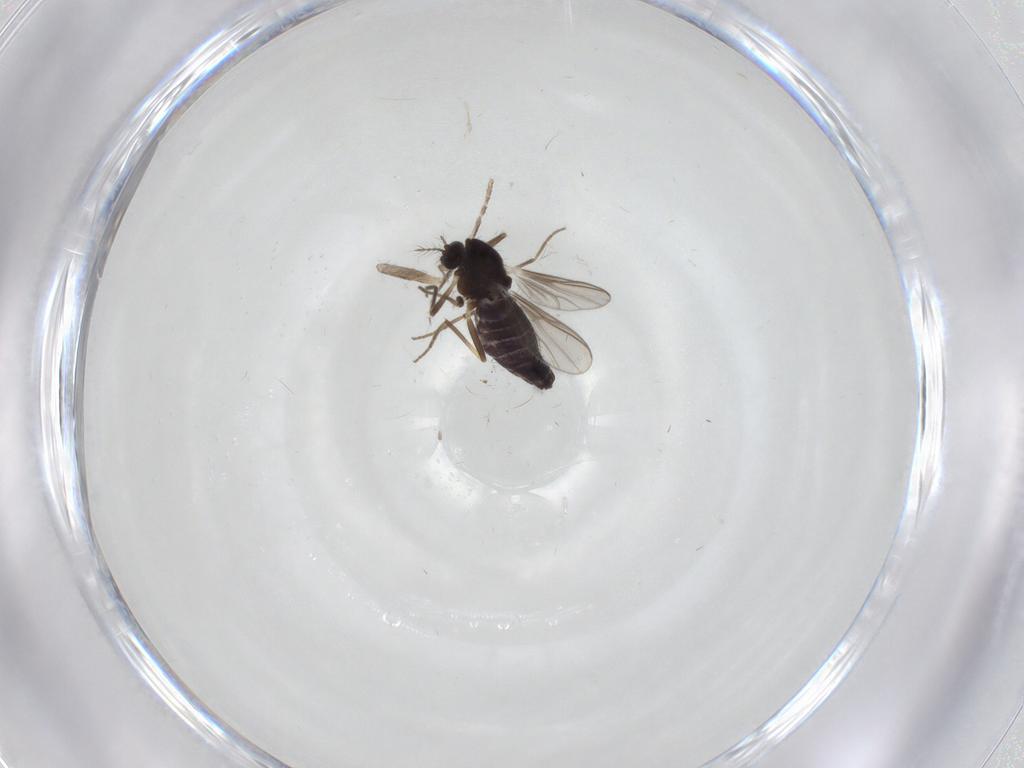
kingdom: Animalia
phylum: Arthropoda
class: Insecta
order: Diptera
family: Chironomidae
